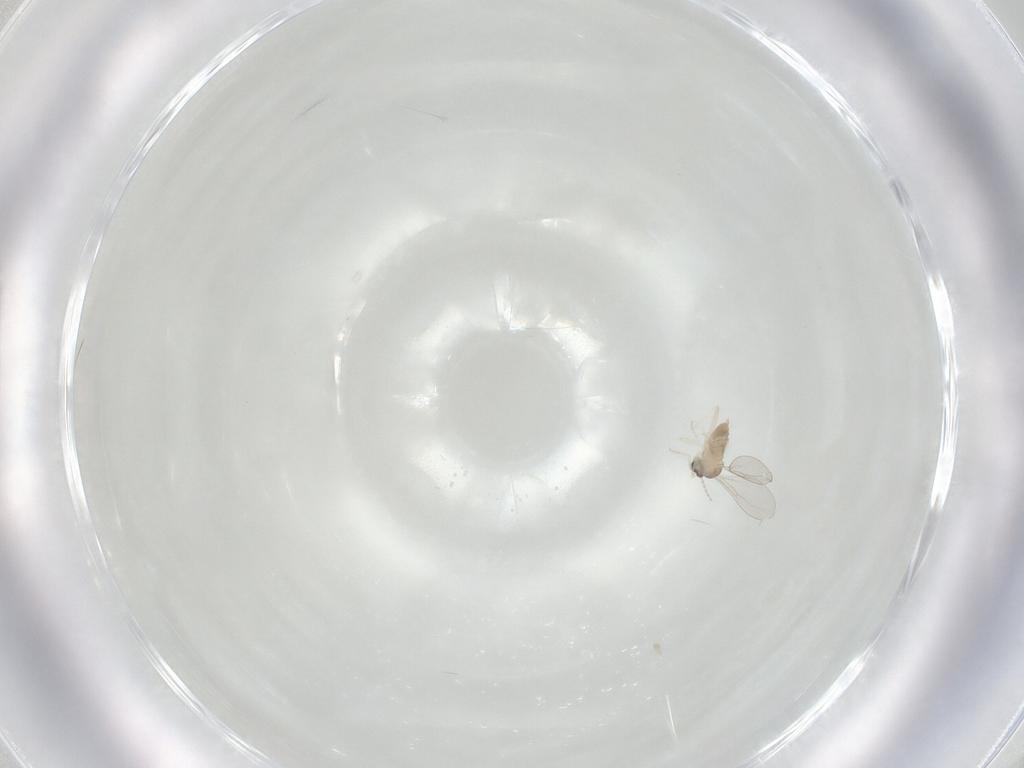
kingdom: Animalia
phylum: Arthropoda
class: Insecta
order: Diptera
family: Cecidomyiidae
